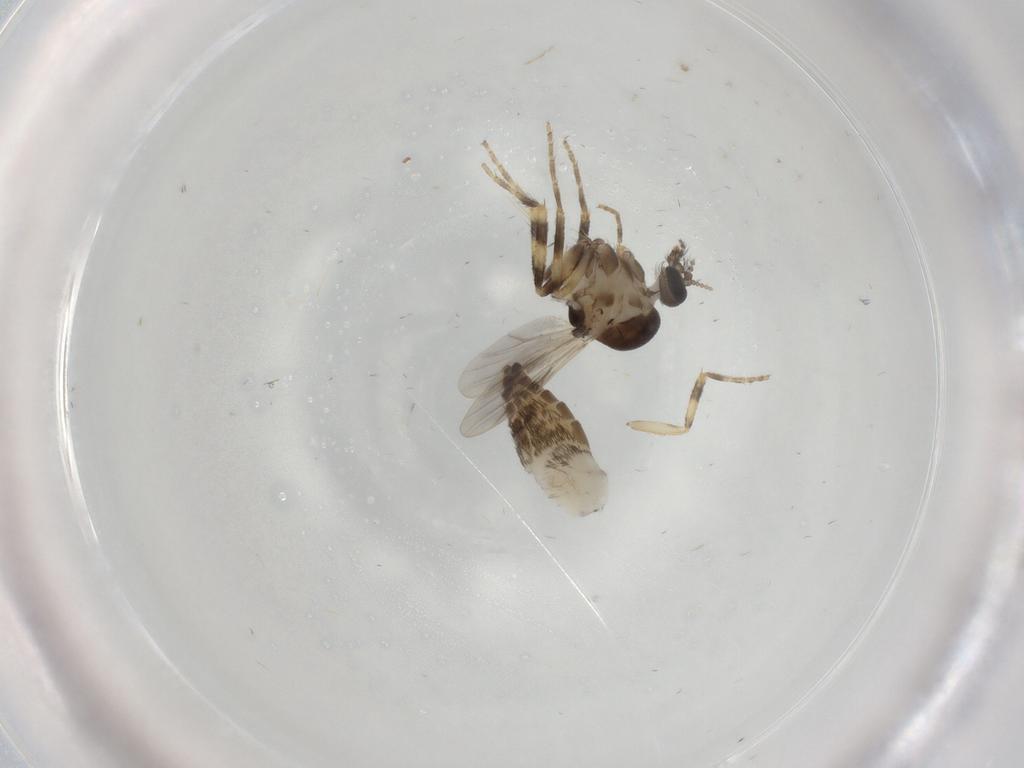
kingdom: Animalia
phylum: Arthropoda
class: Insecta
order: Diptera
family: Ceratopogonidae
